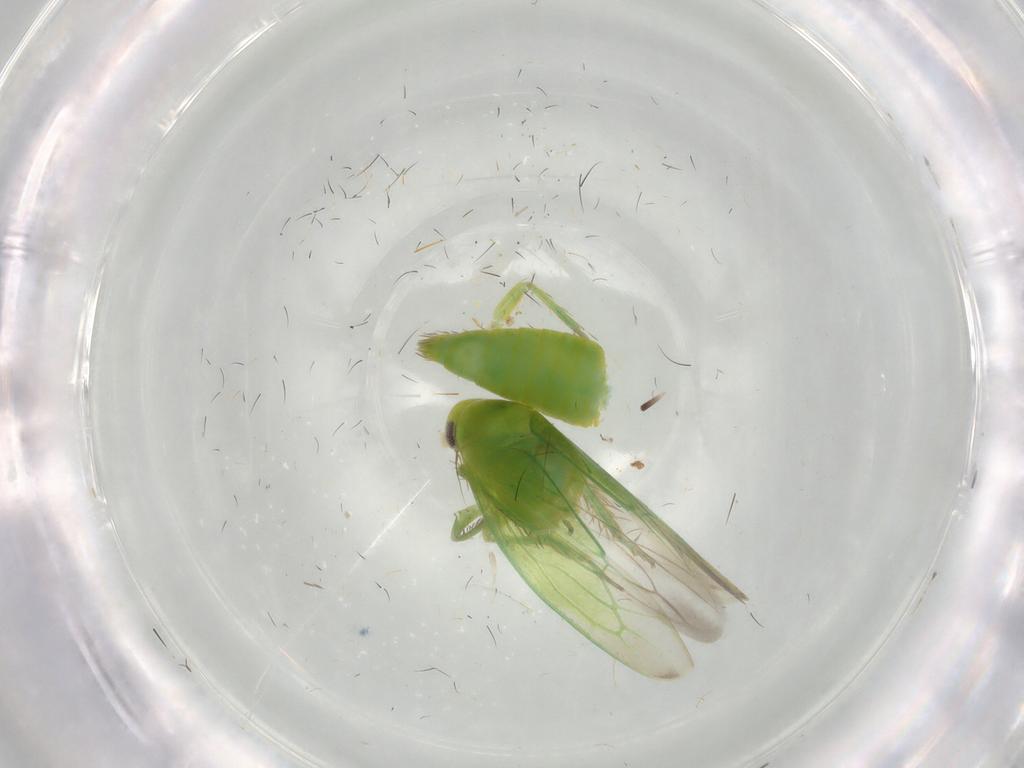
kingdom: Animalia
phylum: Arthropoda
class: Insecta
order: Hemiptera
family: Cicadellidae
